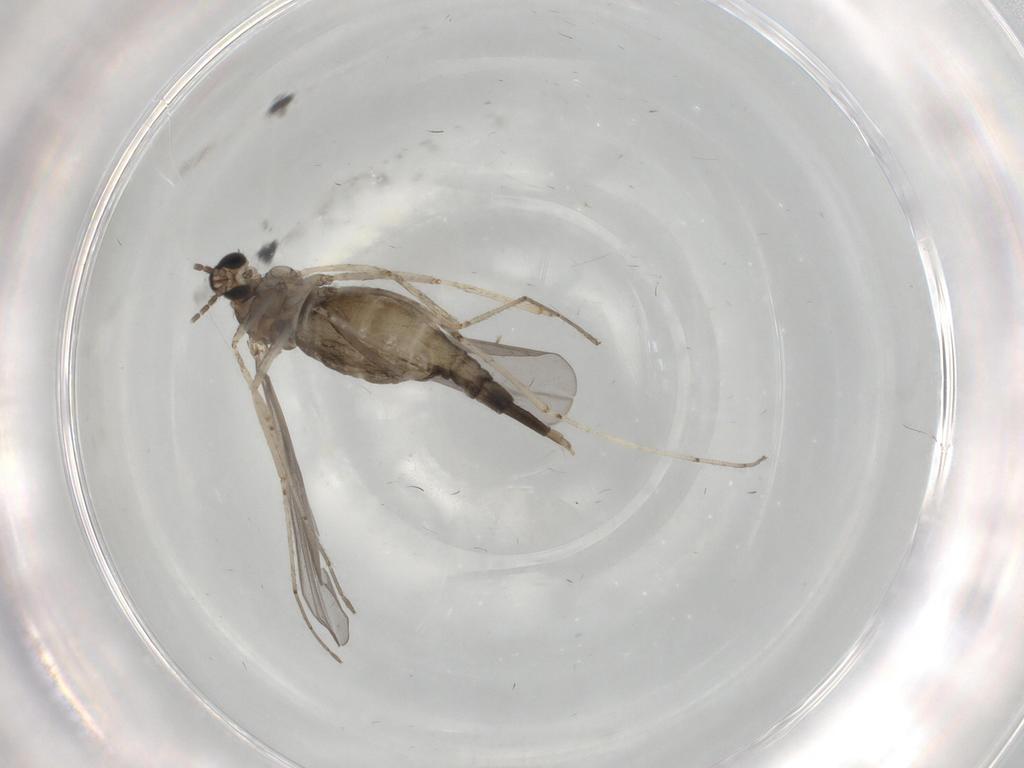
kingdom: Animalia
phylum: Arthropoda
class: Insecta
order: Diptera
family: Cecidomyiidae
